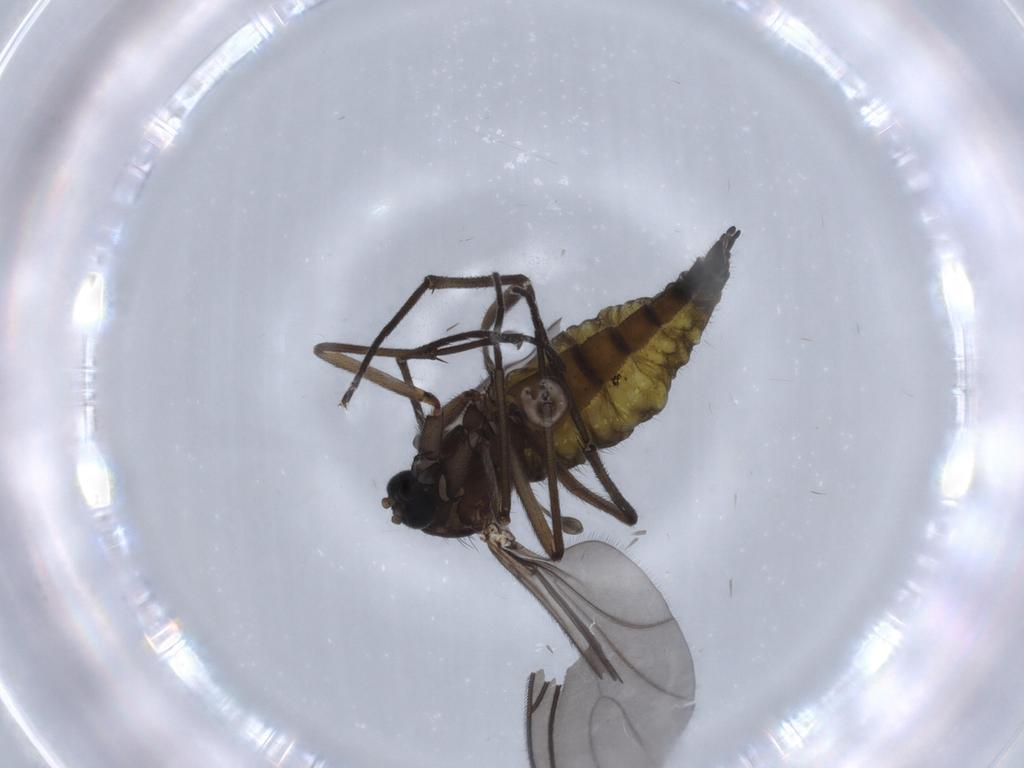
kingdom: Animalia
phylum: Arthropoda
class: Insecta
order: Diptera
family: Sciaridae
